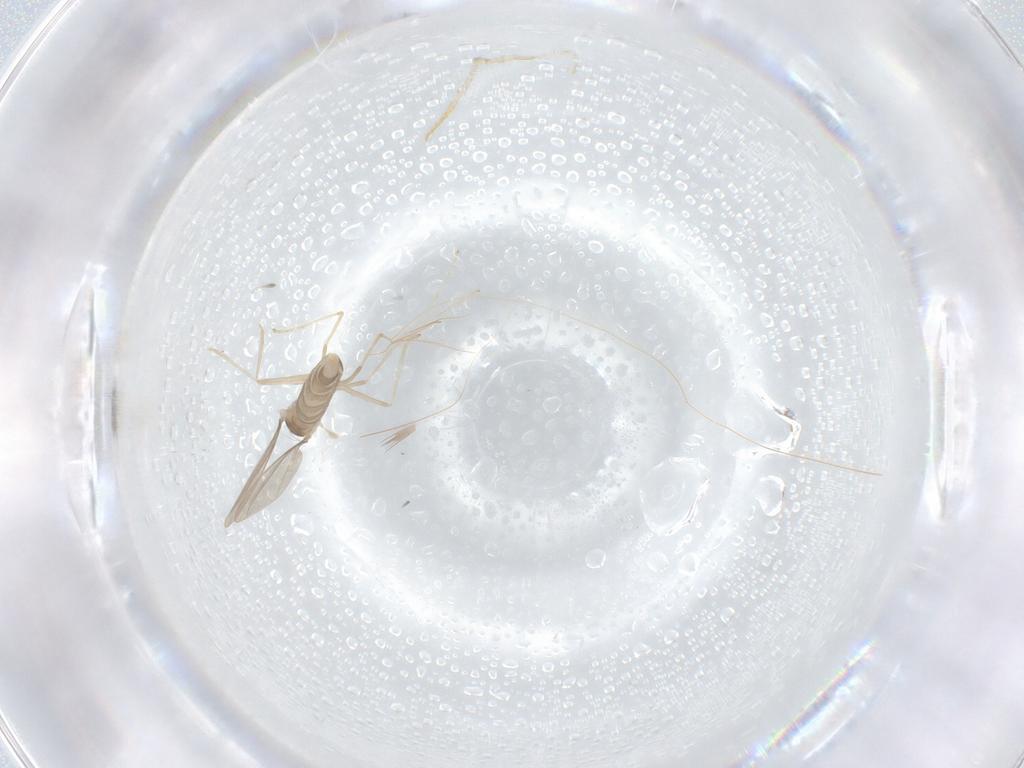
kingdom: Animalia
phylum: Arthropoda
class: Insecta
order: Diptera
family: Cecidomyiidae
